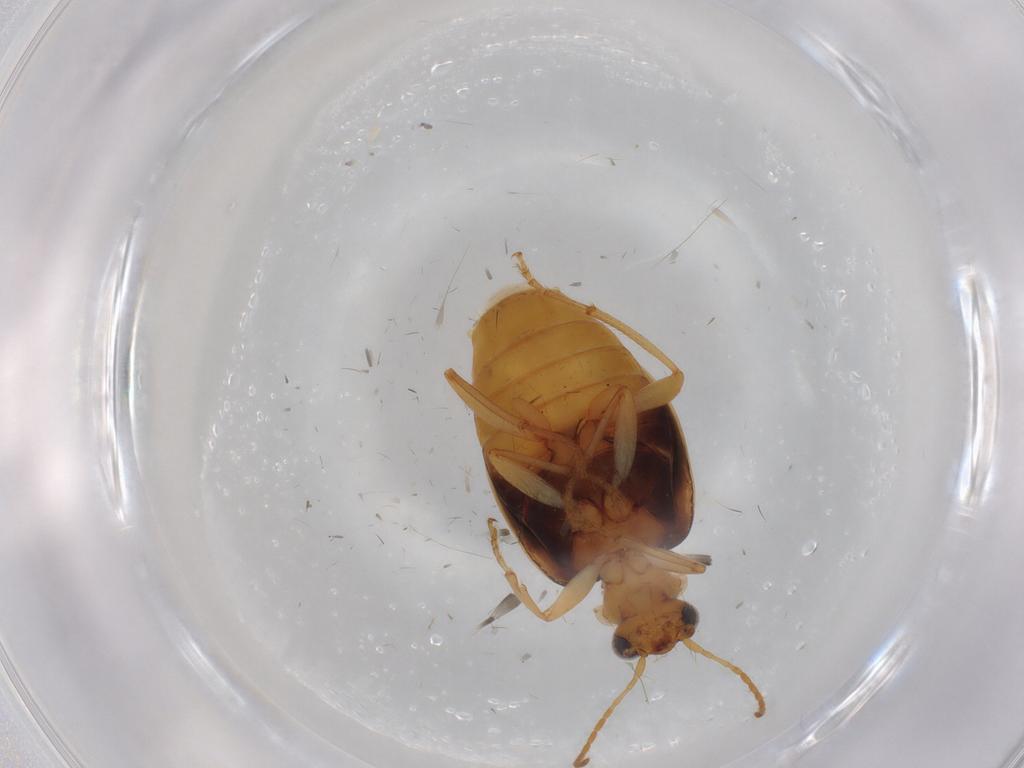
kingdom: Animalia
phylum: Arthropoda
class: Insecta
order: Coleoptera
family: Carabidae
